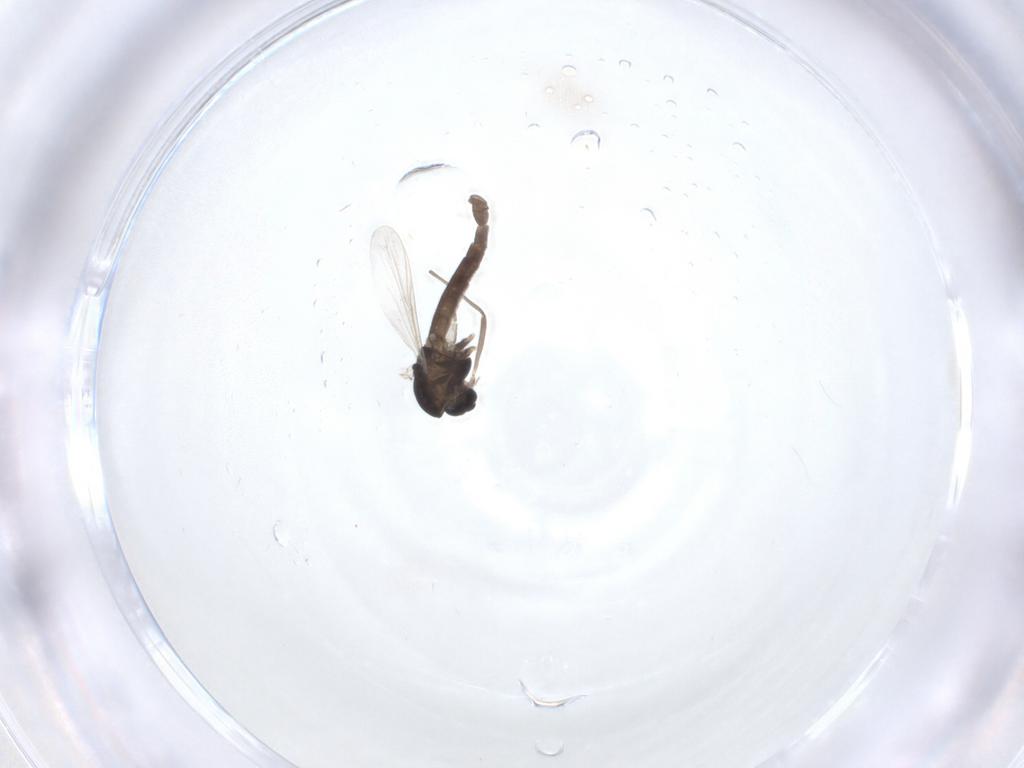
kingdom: Animalia
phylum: Arthropoda
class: Insecta
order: Diptera
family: Chironomidae
